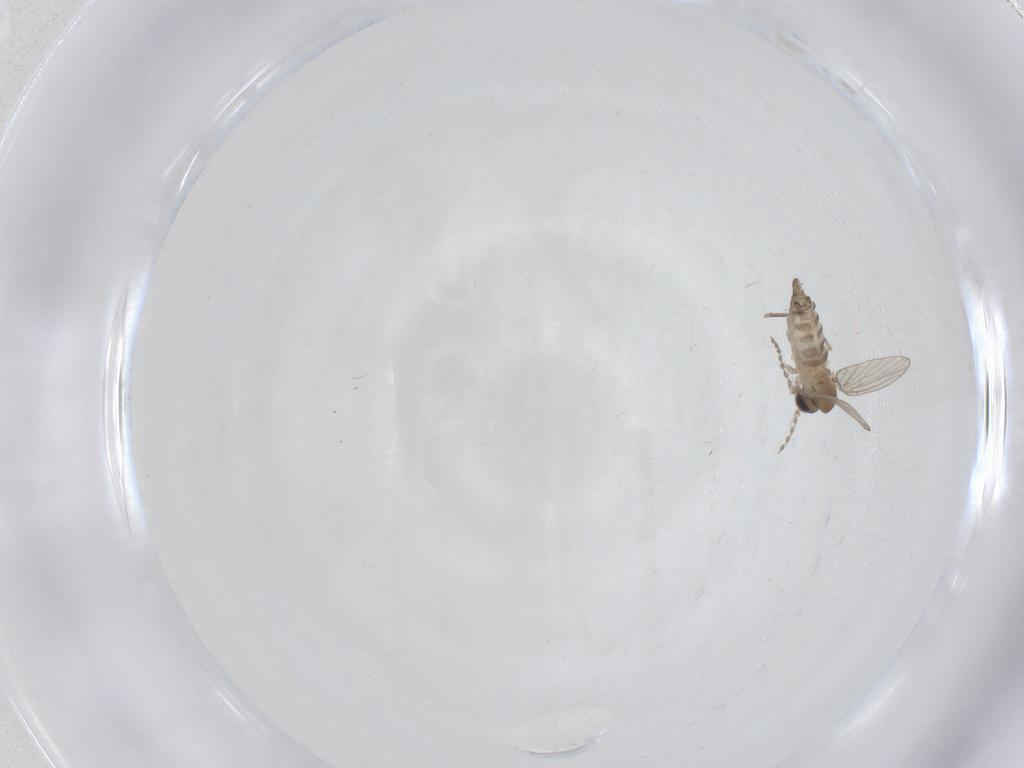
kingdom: Animalia
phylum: Arthropoda
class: Insecta
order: Diptera
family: Psychodidae
